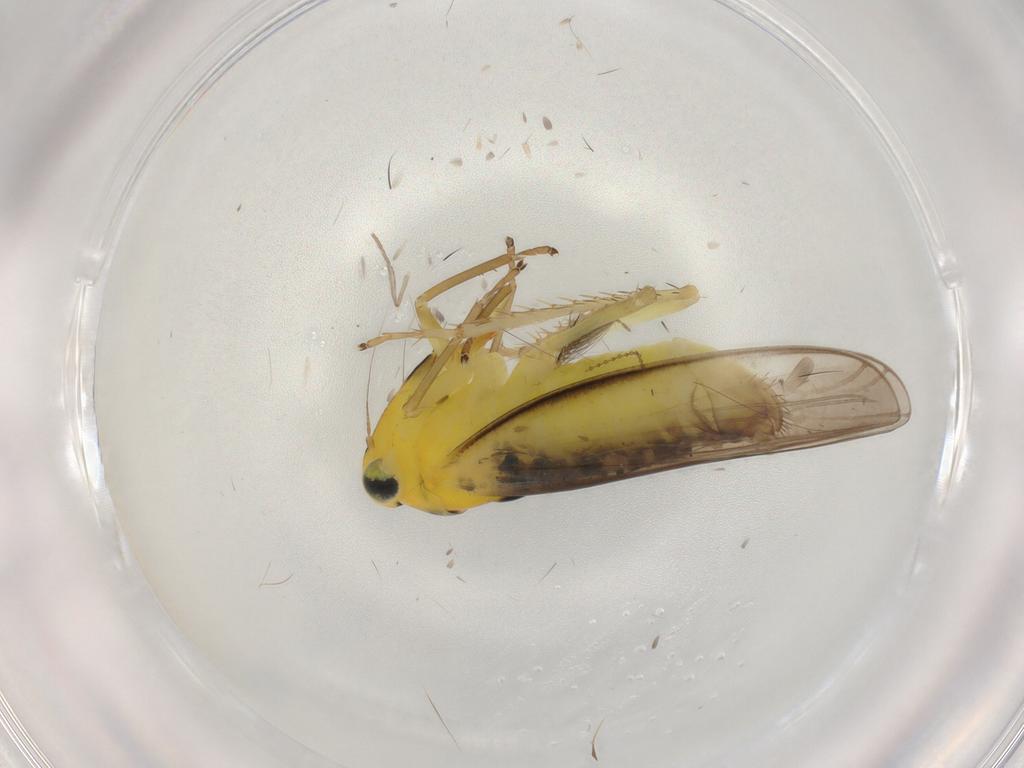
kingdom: Animalia
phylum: Arthropoda
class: Insecta
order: Hemiptera
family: Cicadellidae
